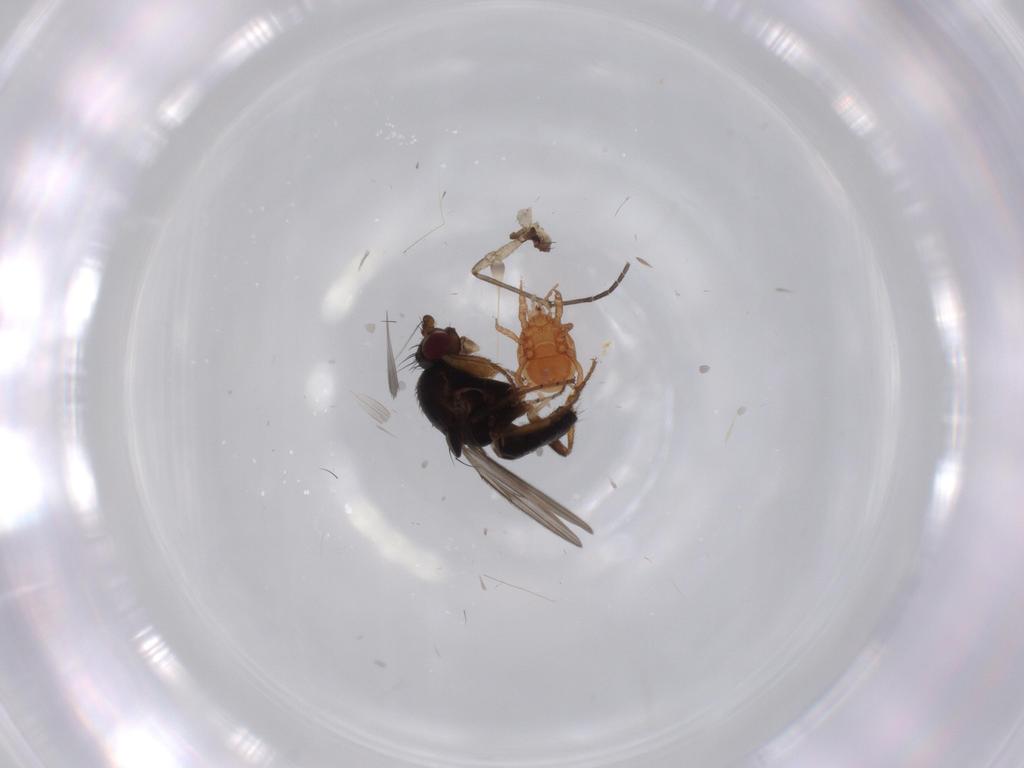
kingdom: Animalia
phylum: Arthropoda
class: Insecta
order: Diptera
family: Sphaeroceridae
